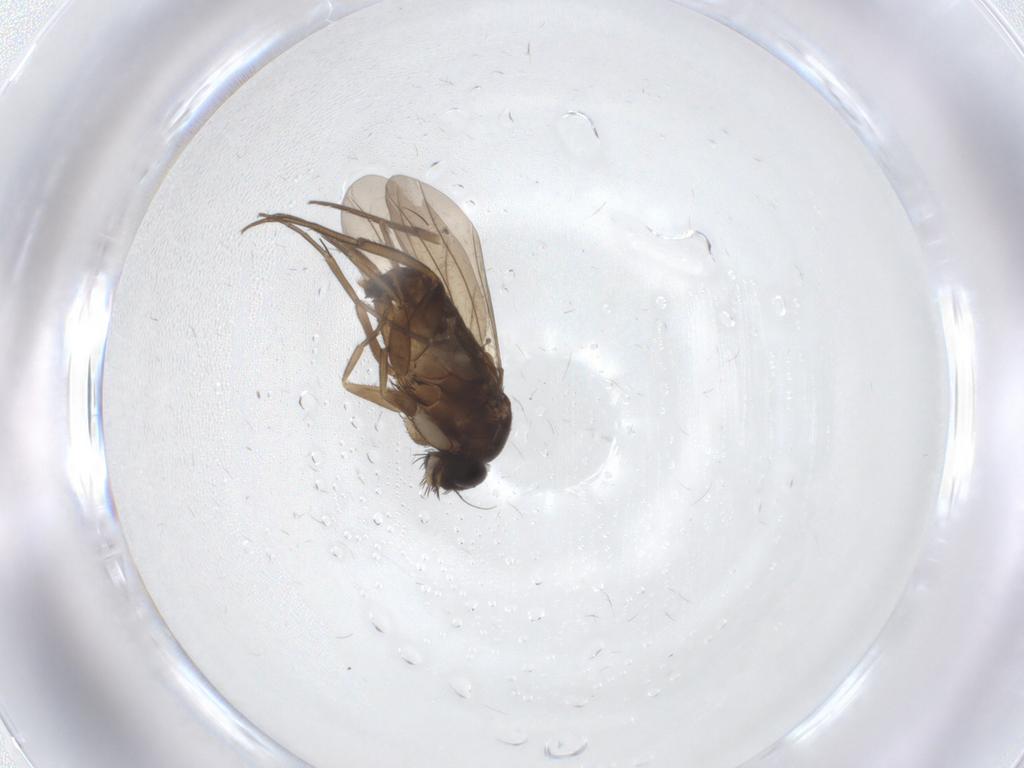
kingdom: Animalia
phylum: Arthropoda
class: Insecta
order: Diptera
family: Phoridae
